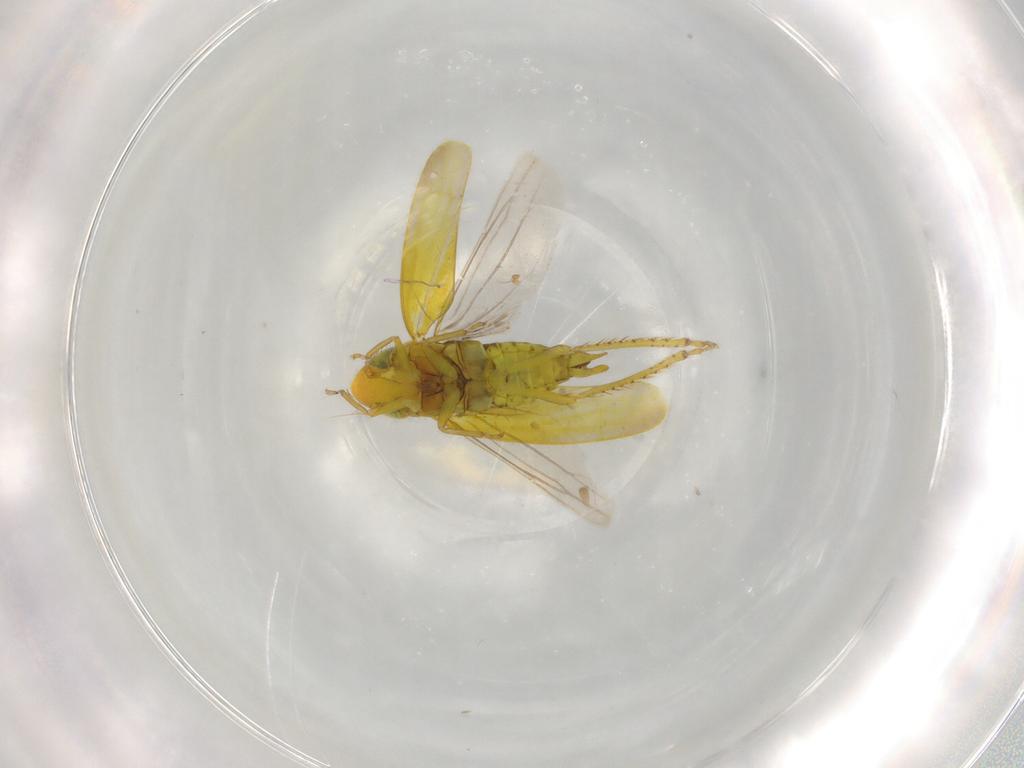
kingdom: Animalia
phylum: Arthropoda
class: Insecta
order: Hemiptera
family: Cicadellidae
